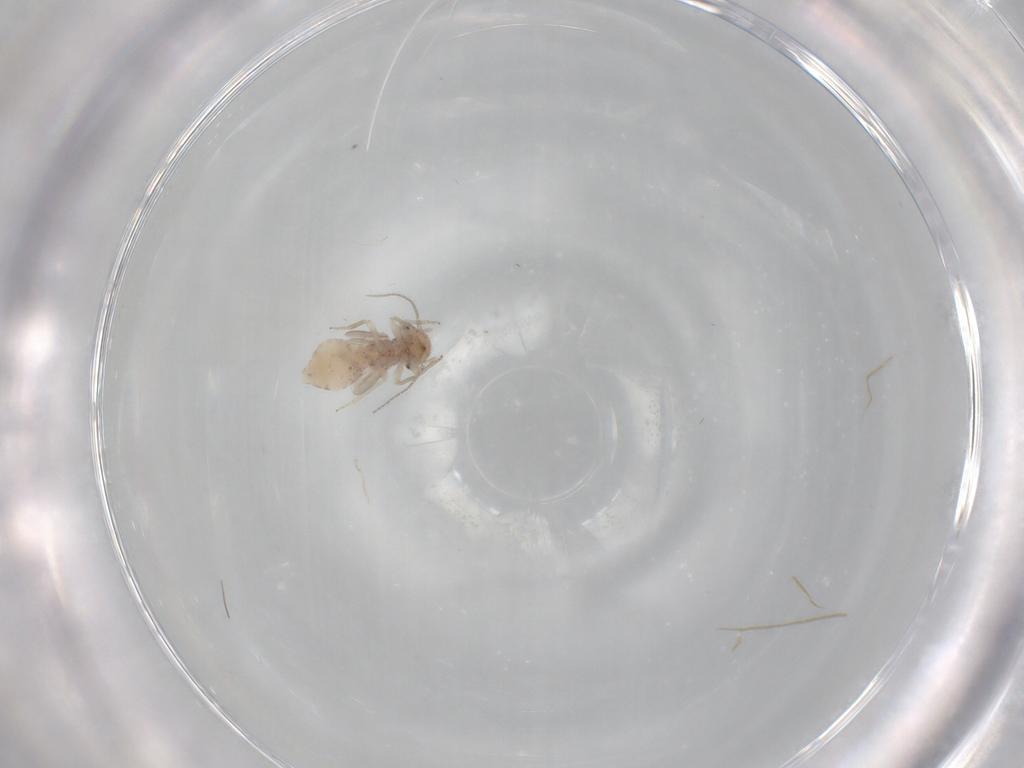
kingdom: Animalia
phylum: Arthropoda
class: Insecta
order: Psocodea
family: Ectopsocidae
